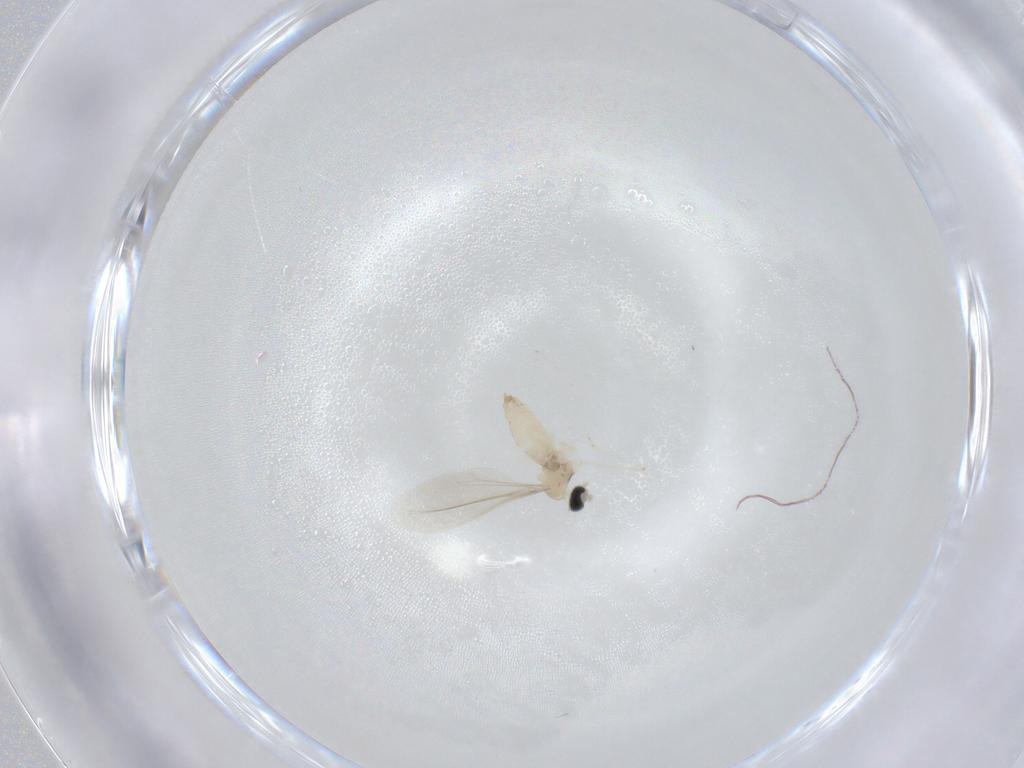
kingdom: Animalia
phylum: Arthropoda
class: Insecta
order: Diptera
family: Cecidomyiidae
